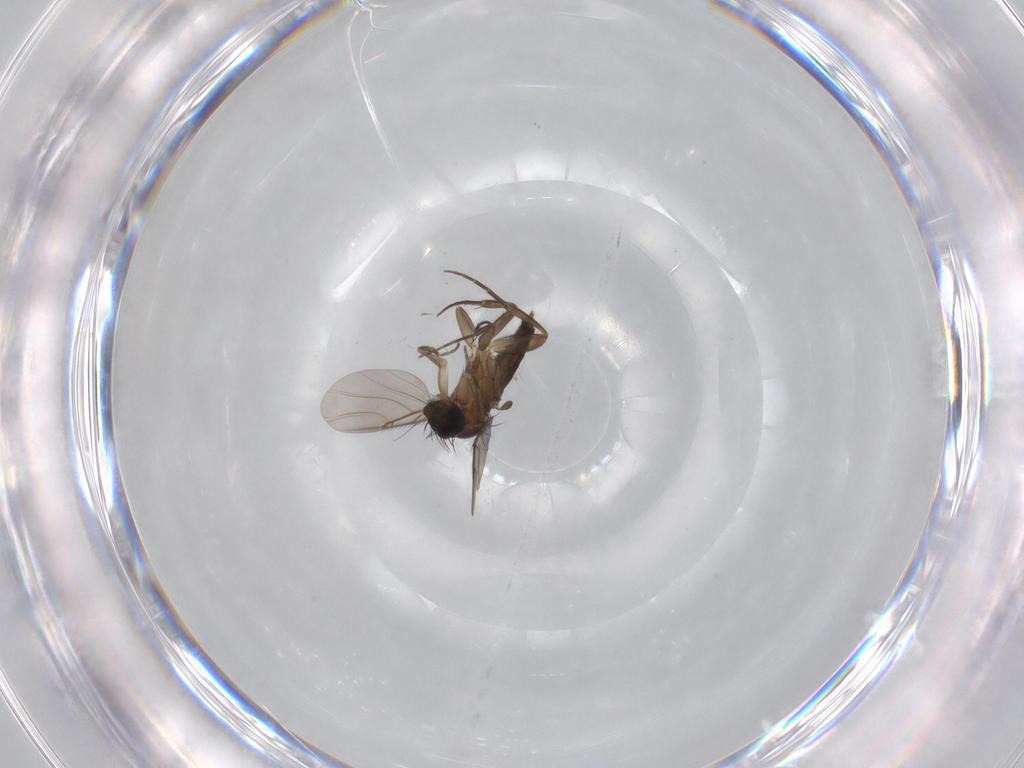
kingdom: Animalia
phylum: Arthropoda
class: Insecta
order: Diptera
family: Phoridae
